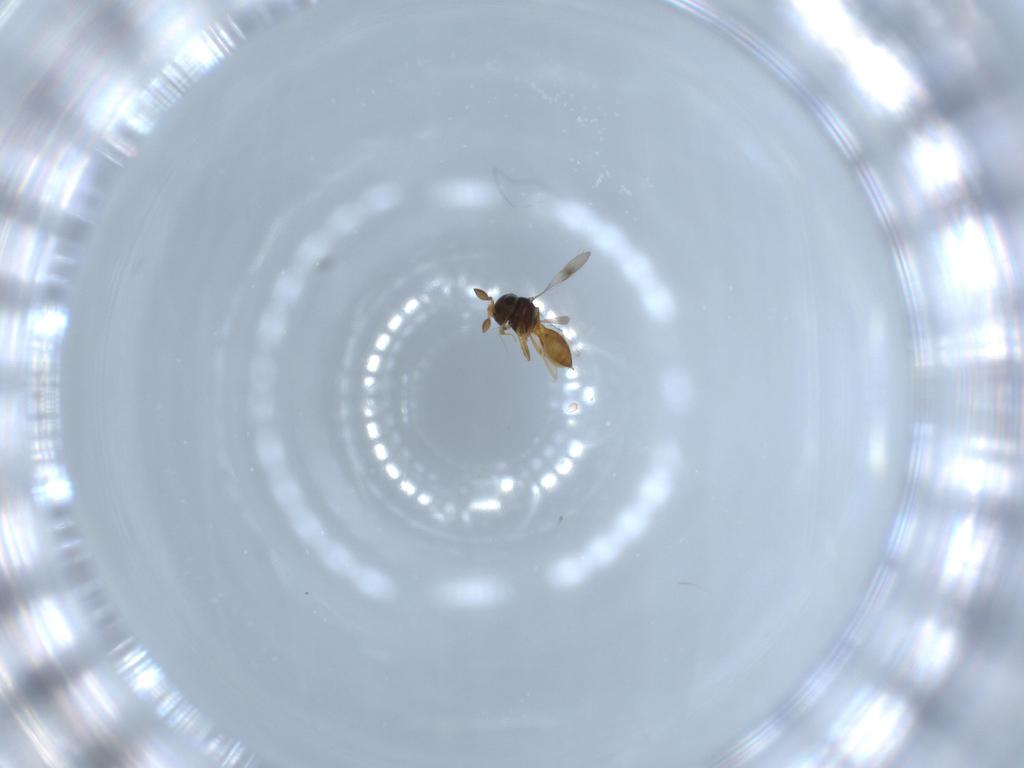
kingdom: Animalia
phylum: Arthropoda
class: Insecta
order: Hymenoptera
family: Scelionidae
